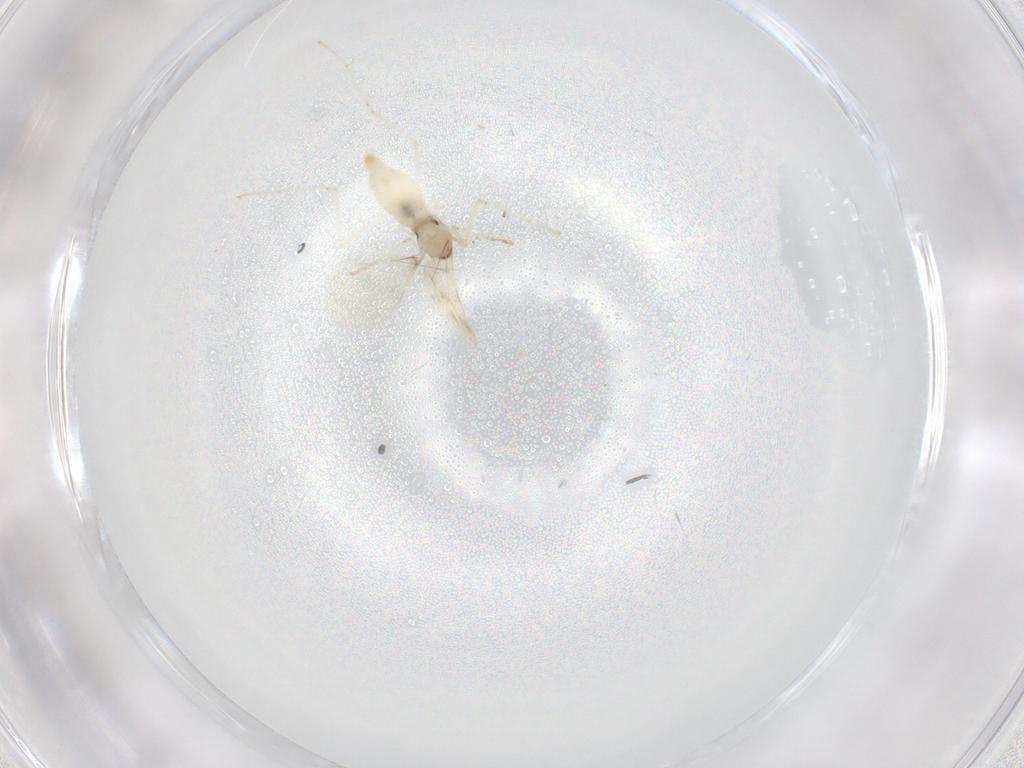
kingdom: Animalia
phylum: Arthropoda
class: Insecta
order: Diptera
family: Cecidomyiidae
